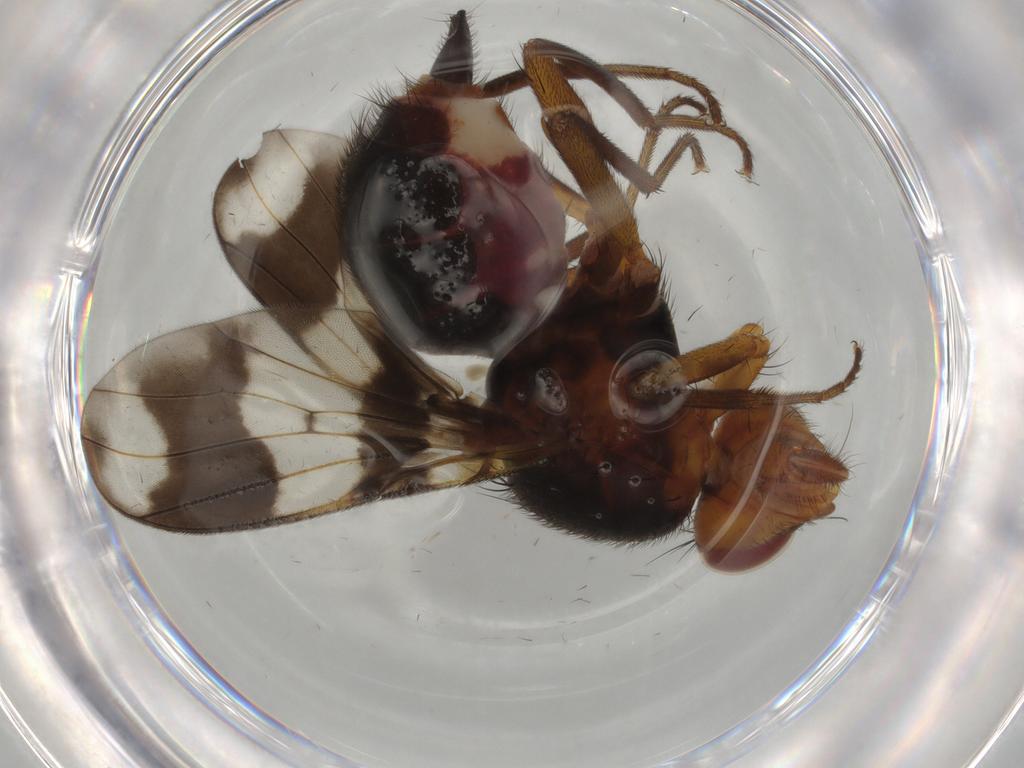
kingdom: Animalia
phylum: Arthropoda
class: Insecta
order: Diptera
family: Richardiidae
